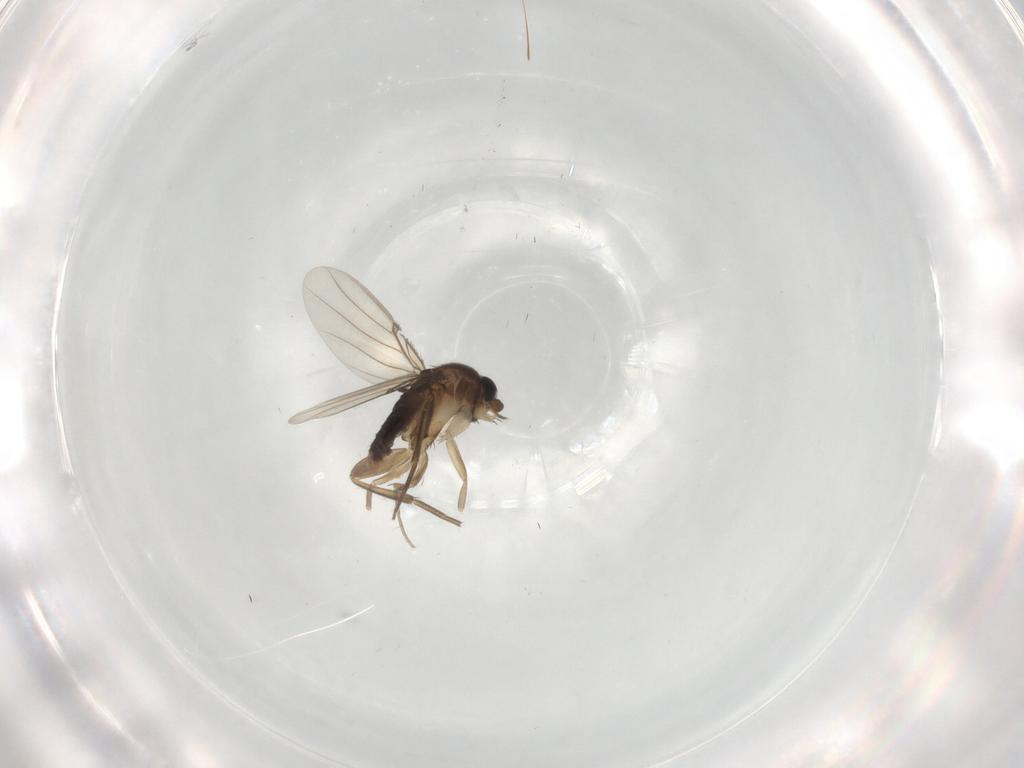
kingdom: Animalia
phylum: Arthropoda
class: Insecta
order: Diptera
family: Phoridae
